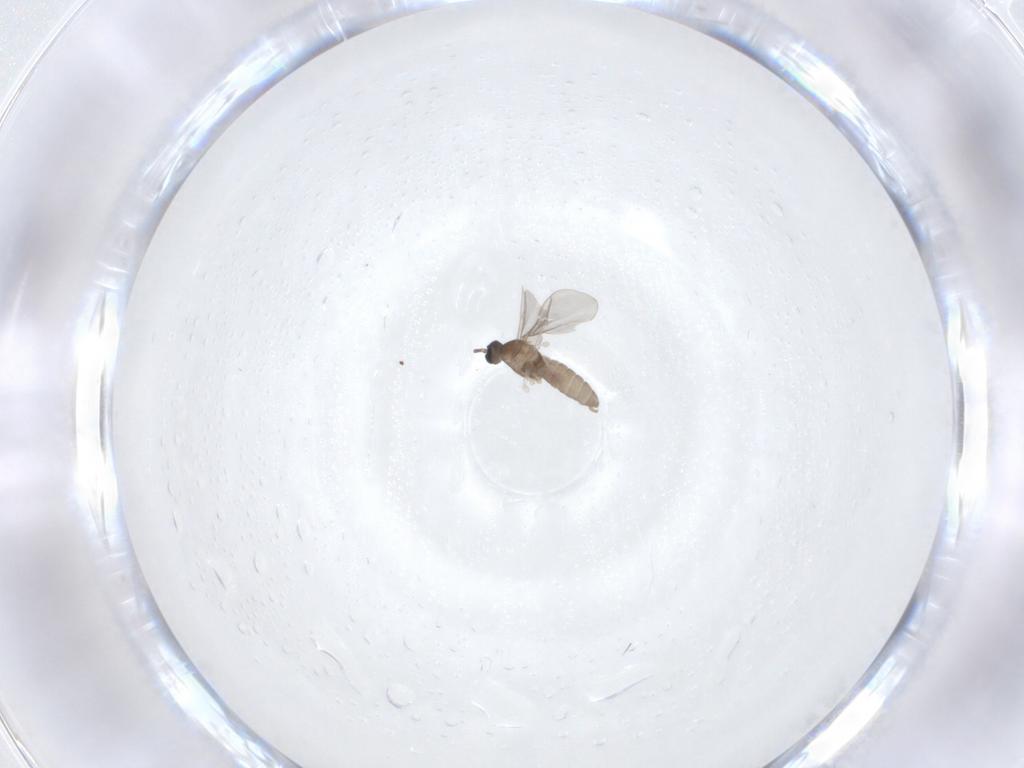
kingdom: Animalia
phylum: Arthropoda
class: Insecta
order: Diptera
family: Cecidomyiidae
